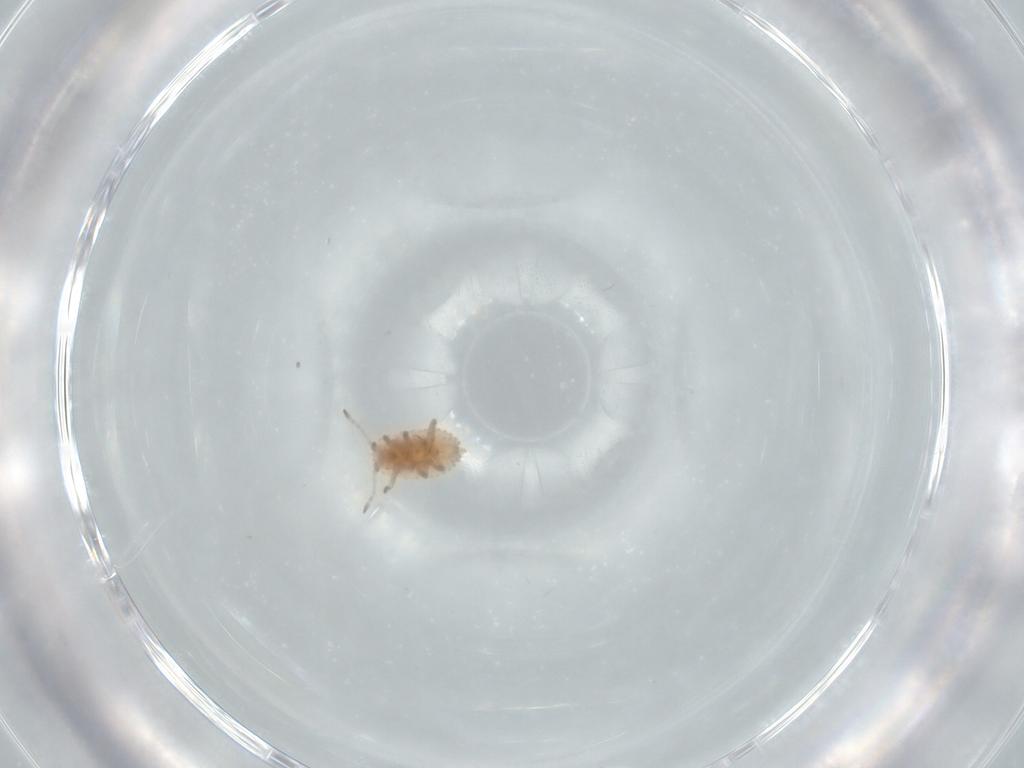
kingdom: Animalia
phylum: Arthropoda
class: Insecta
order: Hemiptera
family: Coccoidea_incertae_sedis
